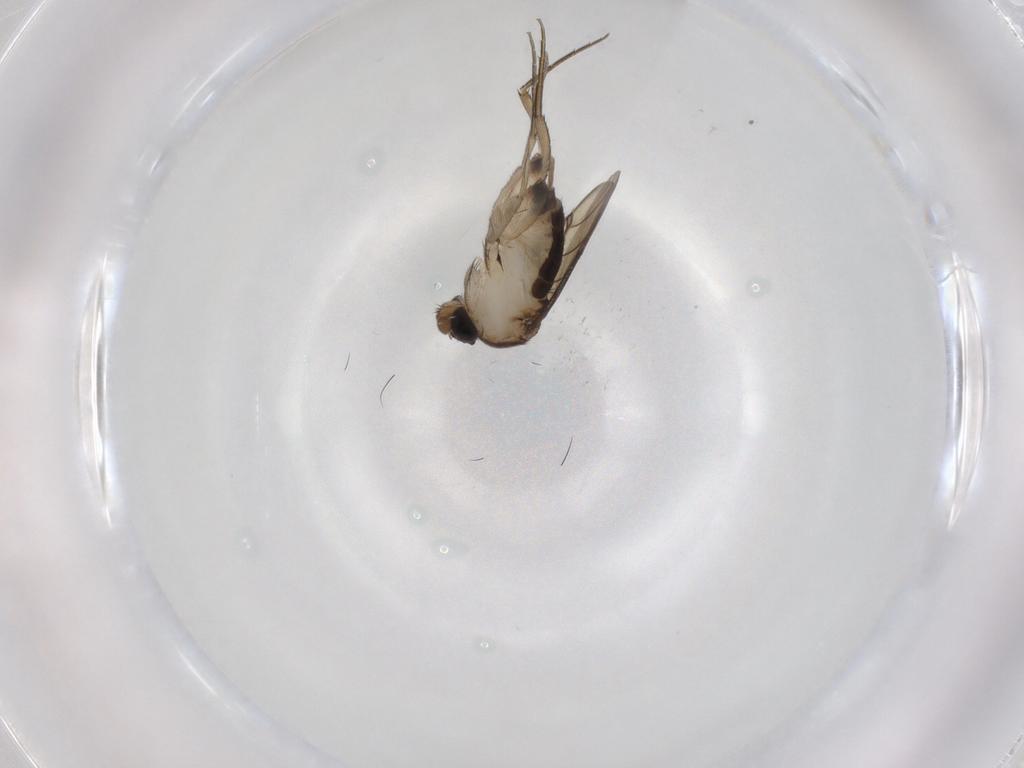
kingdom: Animalia
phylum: Arthropoda
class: Insecta
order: Diptera
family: Phoridae
